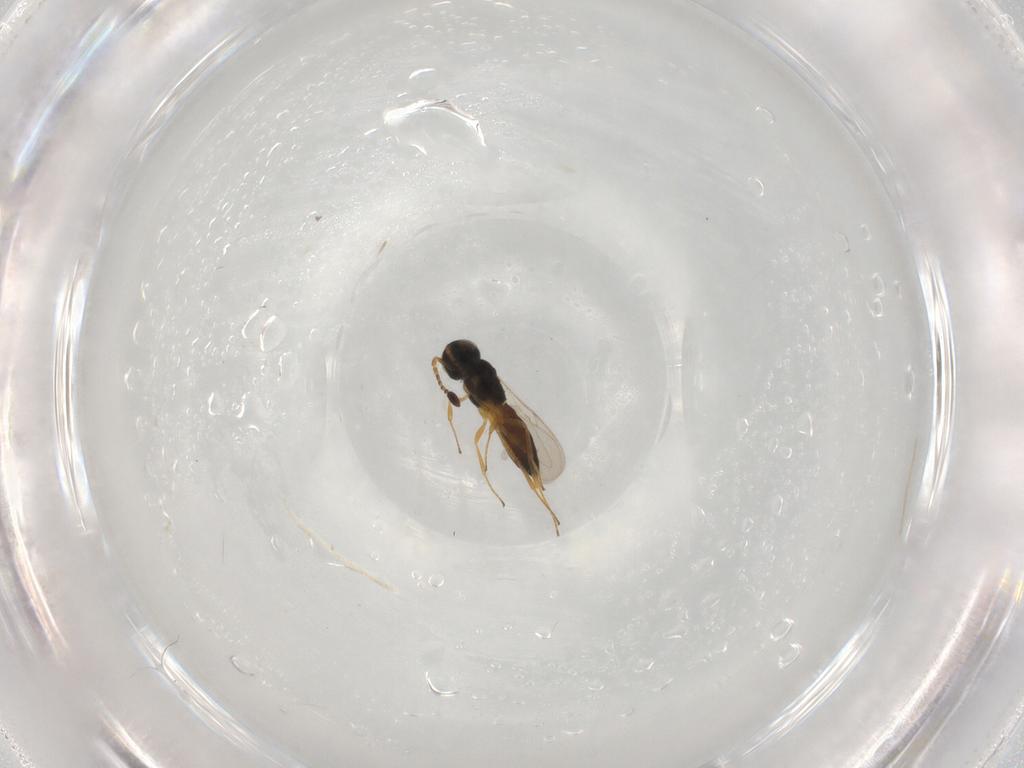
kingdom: Animalia
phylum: Arthropoda
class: Insecta
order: Hymenoptera
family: Scelionidae
